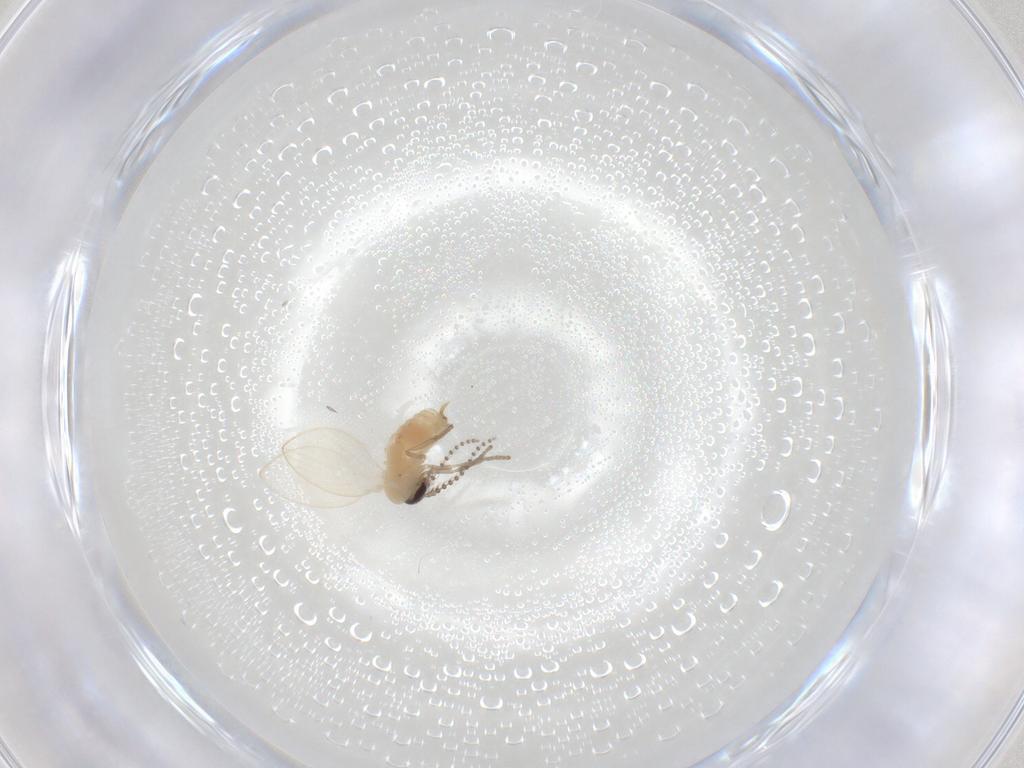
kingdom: Animalia
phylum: Arthropoda
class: Insecta
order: Diptera
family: Psychodidae
